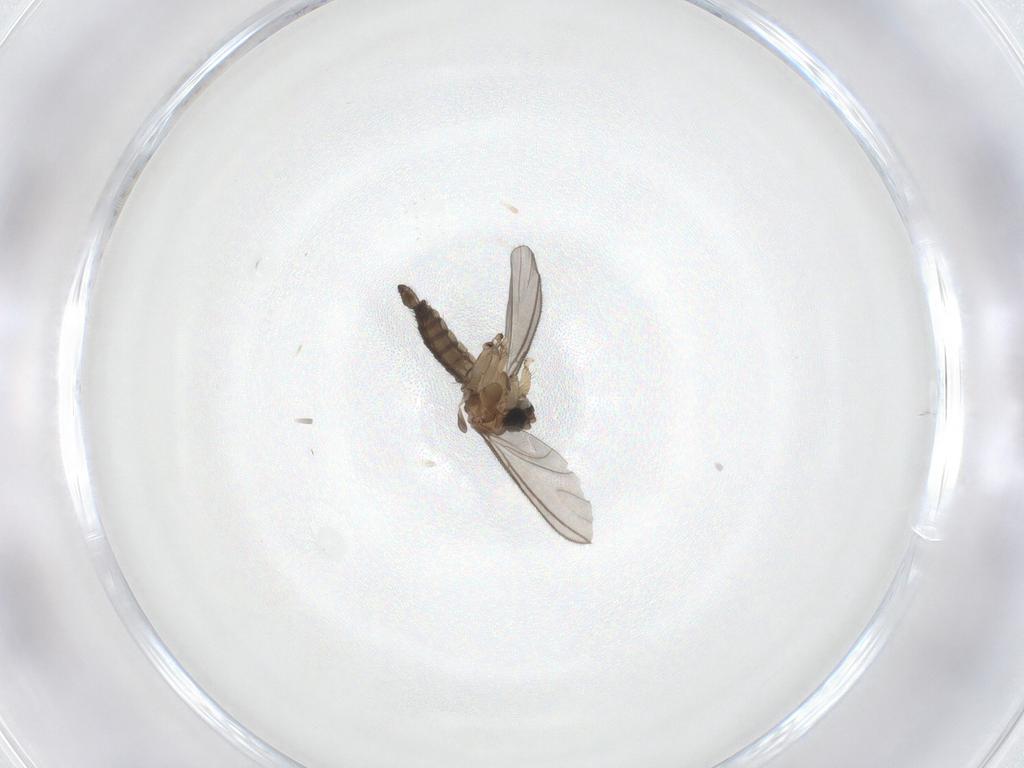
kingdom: Animalia
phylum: Arthropoda
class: Insecta
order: Diptera
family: Sciaridae
